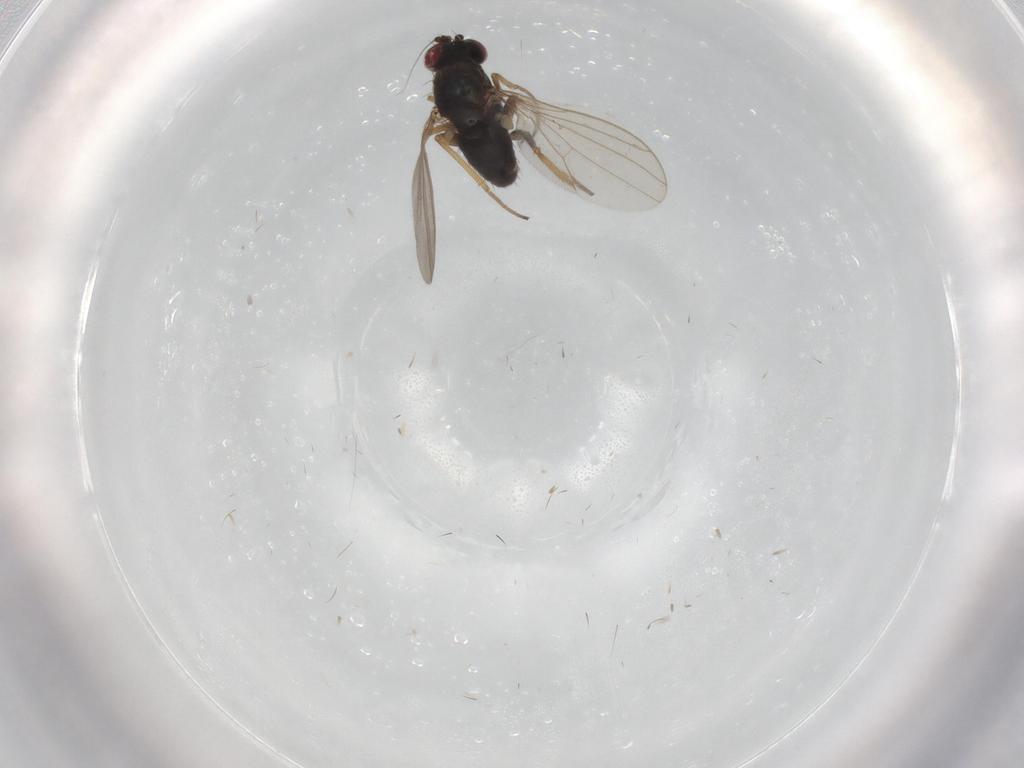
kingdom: Animalia
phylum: Arthropoda
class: Insecta
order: Diptera
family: Dolichopodidae
